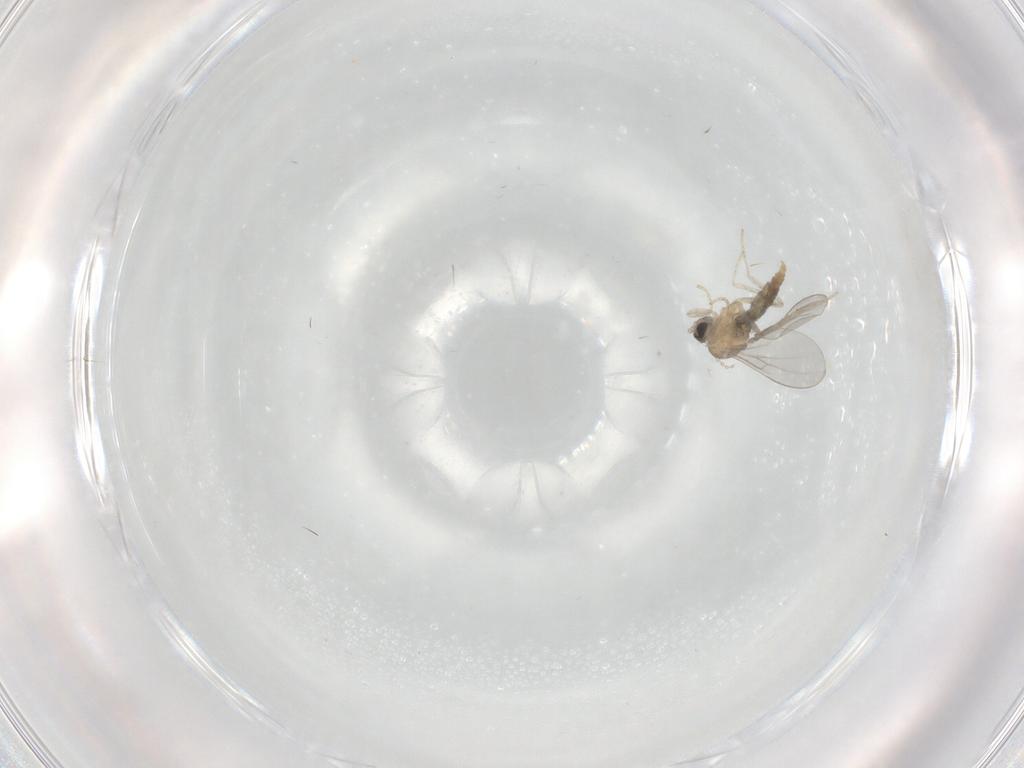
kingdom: Animalia
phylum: Arthropoda
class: Insecta
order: Diptera
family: Cecidomyiidae
